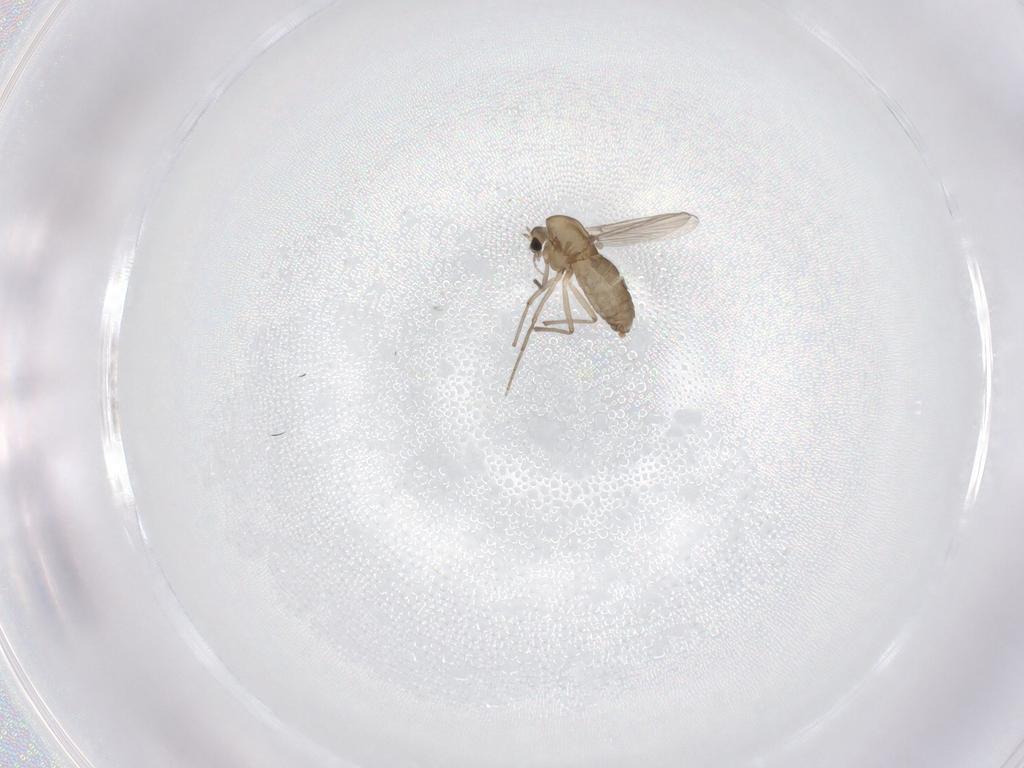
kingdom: Animalia
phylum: Arthropoda
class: Insecta
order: Diptera
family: Chironomidae
